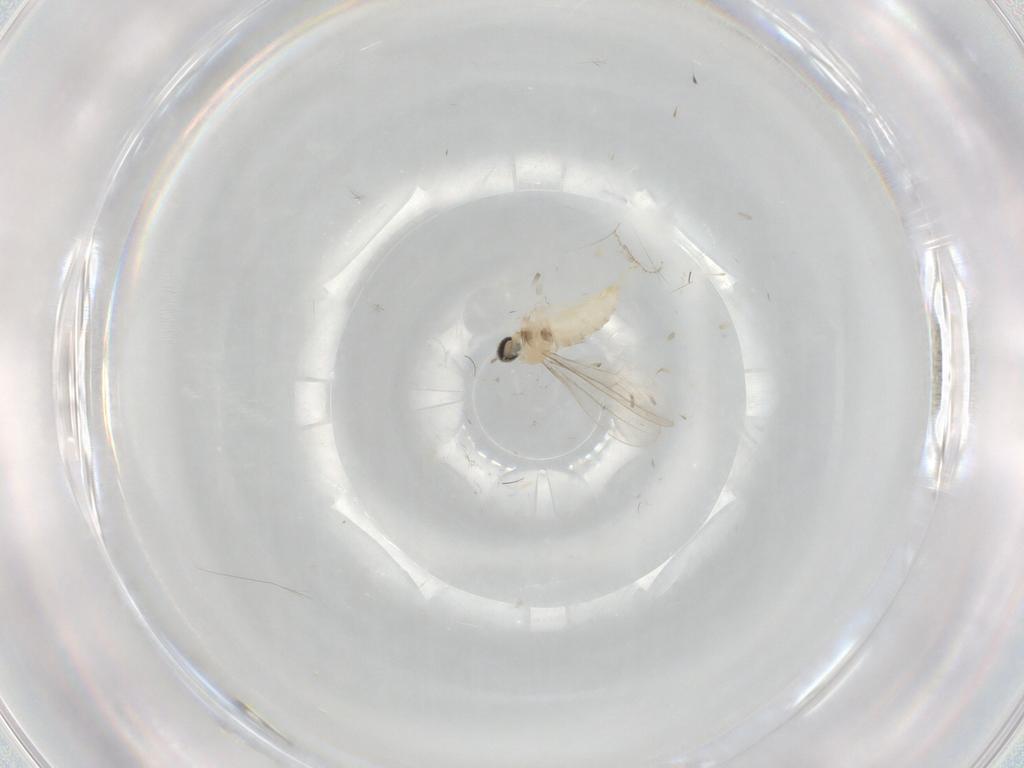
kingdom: Animalia
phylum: Arthropoda
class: Insecta
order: Diptera
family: Cecidomyiidae
